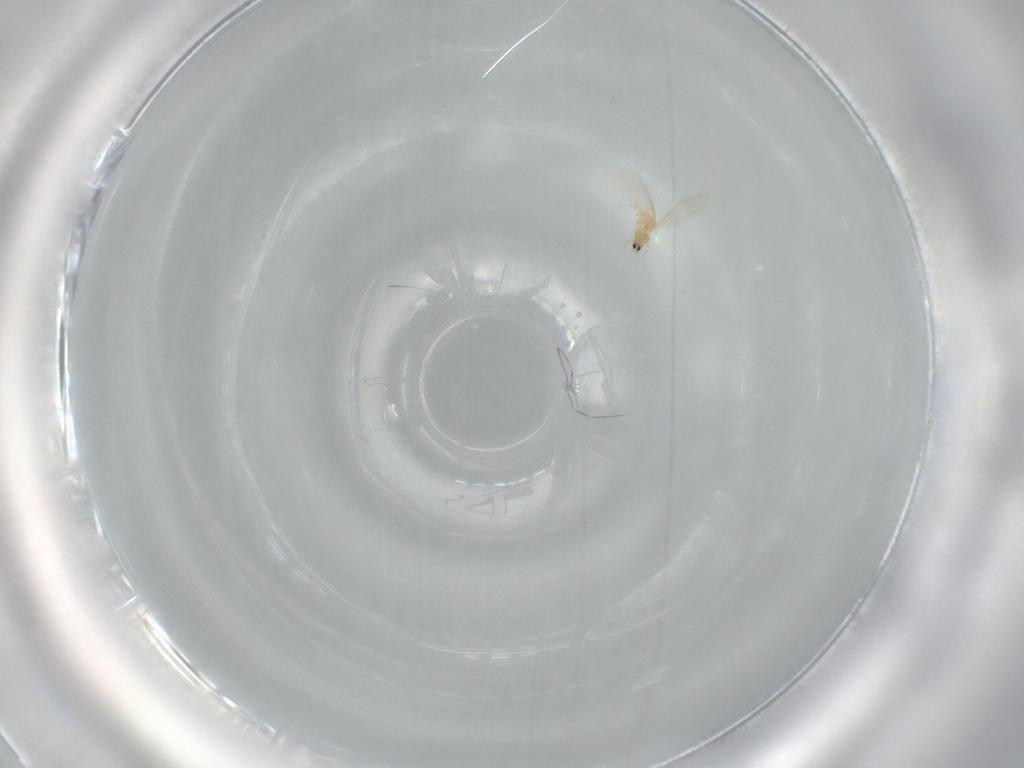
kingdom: Animalia
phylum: Arthropoda
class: Insecta
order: Hemiptera
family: Diaspididae
